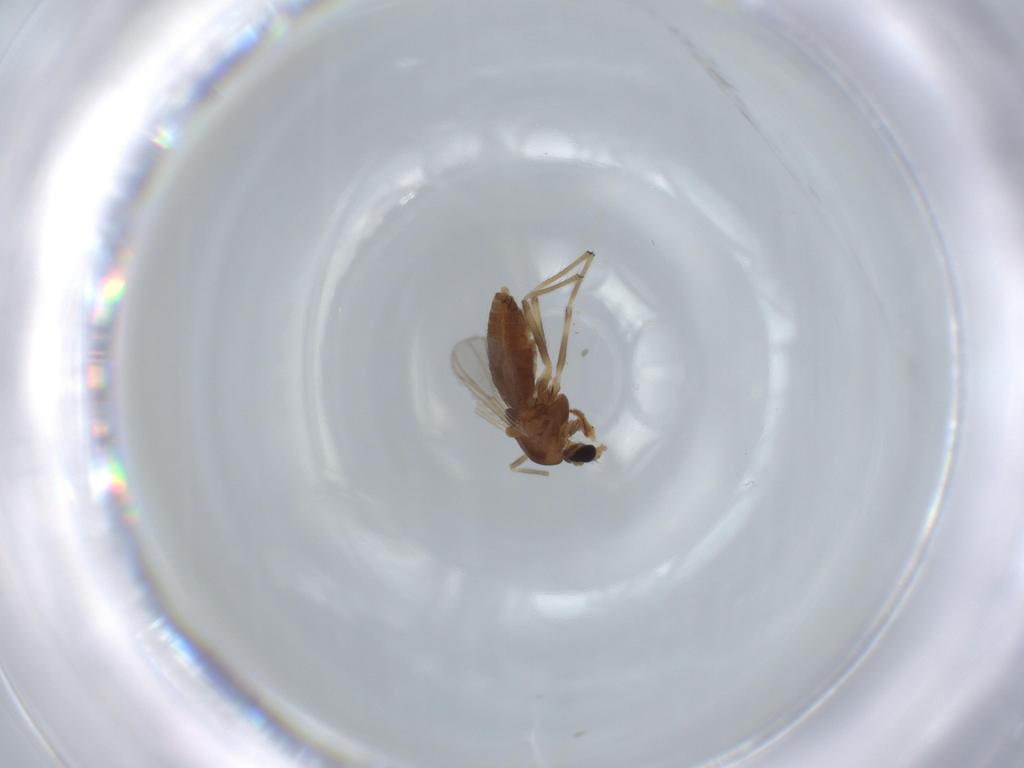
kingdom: Animalia
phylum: Arthropoda
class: Insecta
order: Diptera
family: Chironomidae
